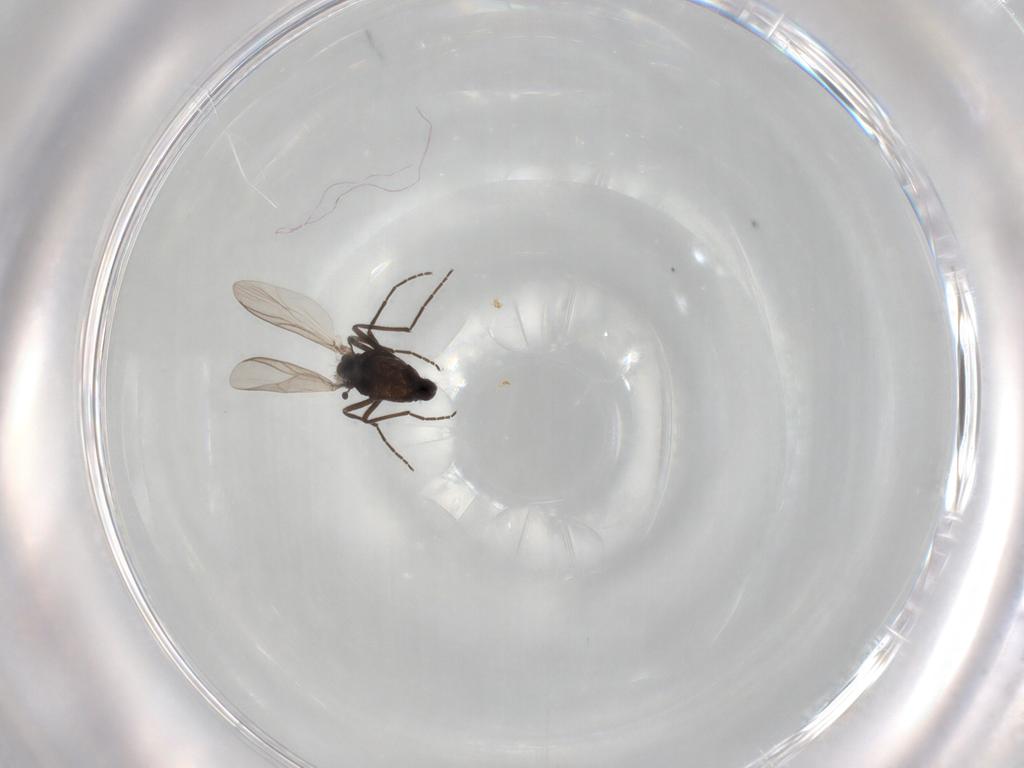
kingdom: Animalia
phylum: Arthropoda
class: Insecta
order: Diptera
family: Chironomidae
